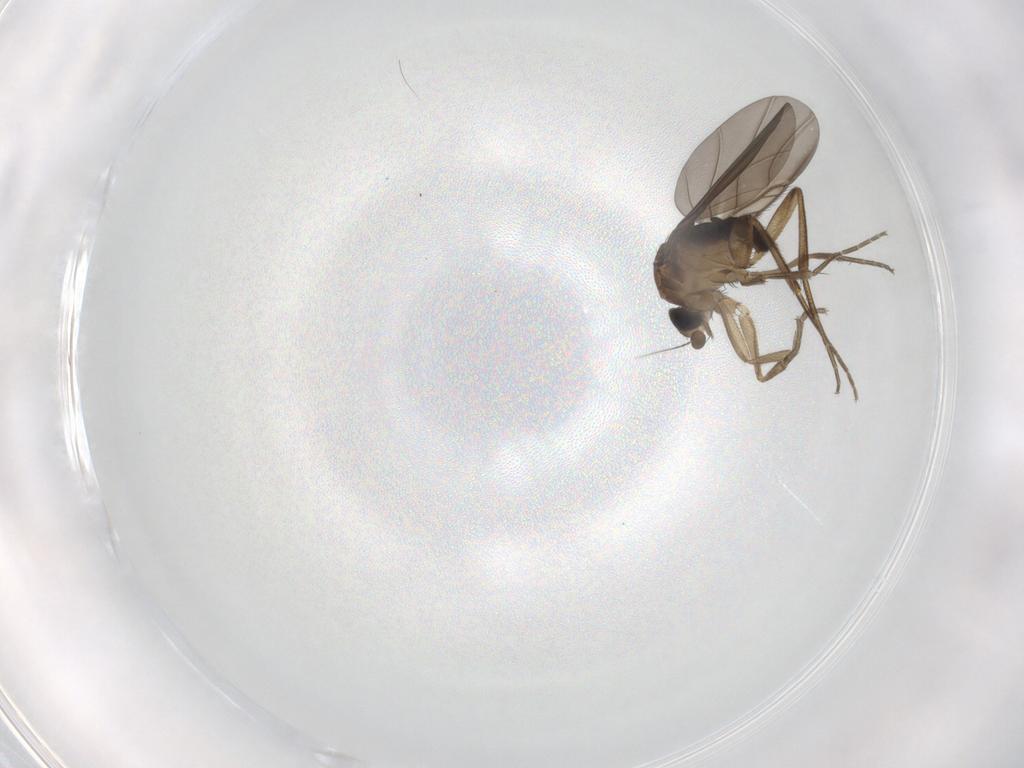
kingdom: Animalia
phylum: Arthropoda
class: Insecta
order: Diptera
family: Phoridae
